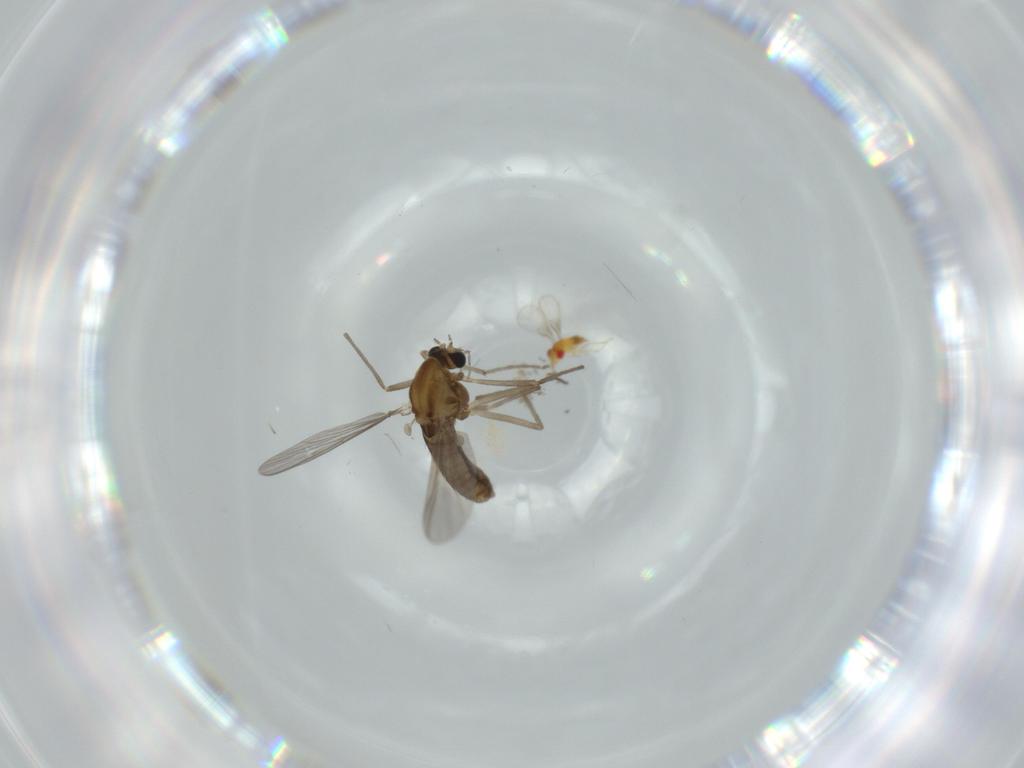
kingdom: Animalia
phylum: Arthropoda
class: Insecta
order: Diptera
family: Chironomidae
